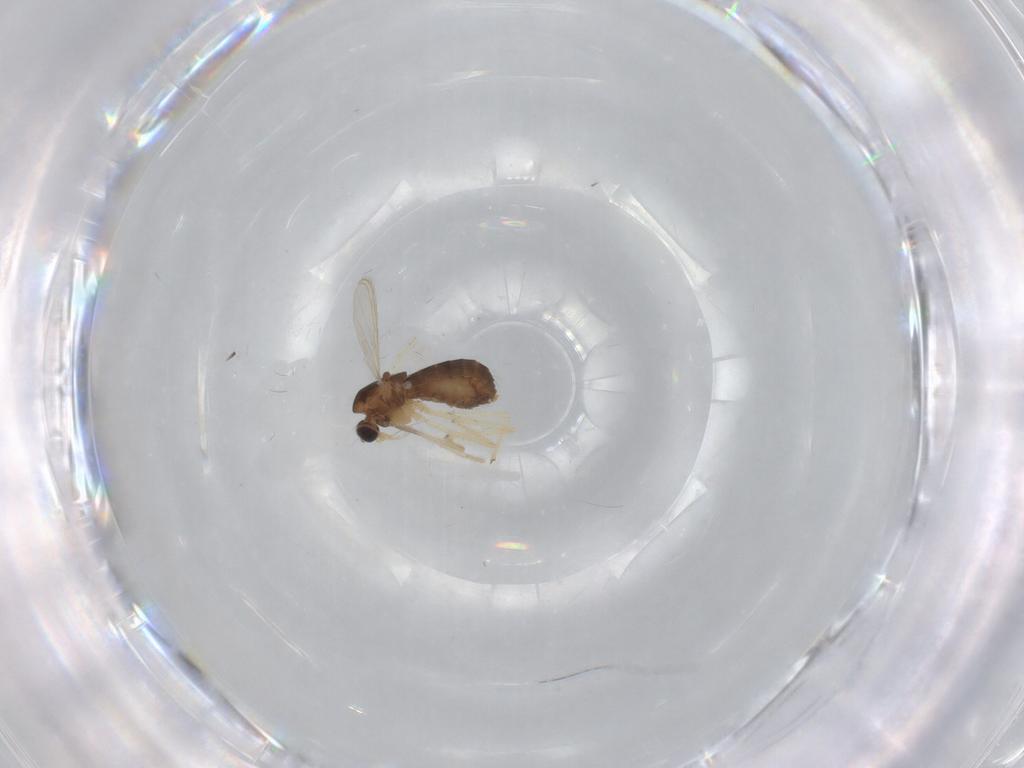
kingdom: Animalia
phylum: Arthropoda
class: Insecta
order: Diptera
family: Chironomidae
